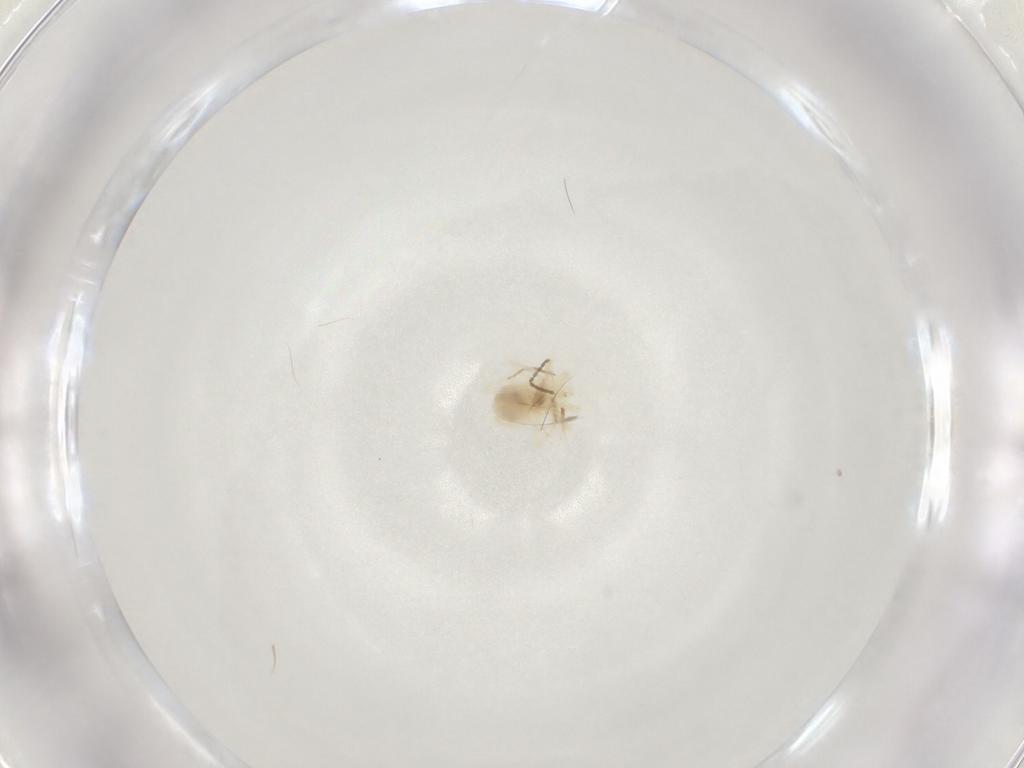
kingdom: Animalia
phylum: Arthropoda
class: Arachnida
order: Trombidiformes
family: Anystidae
